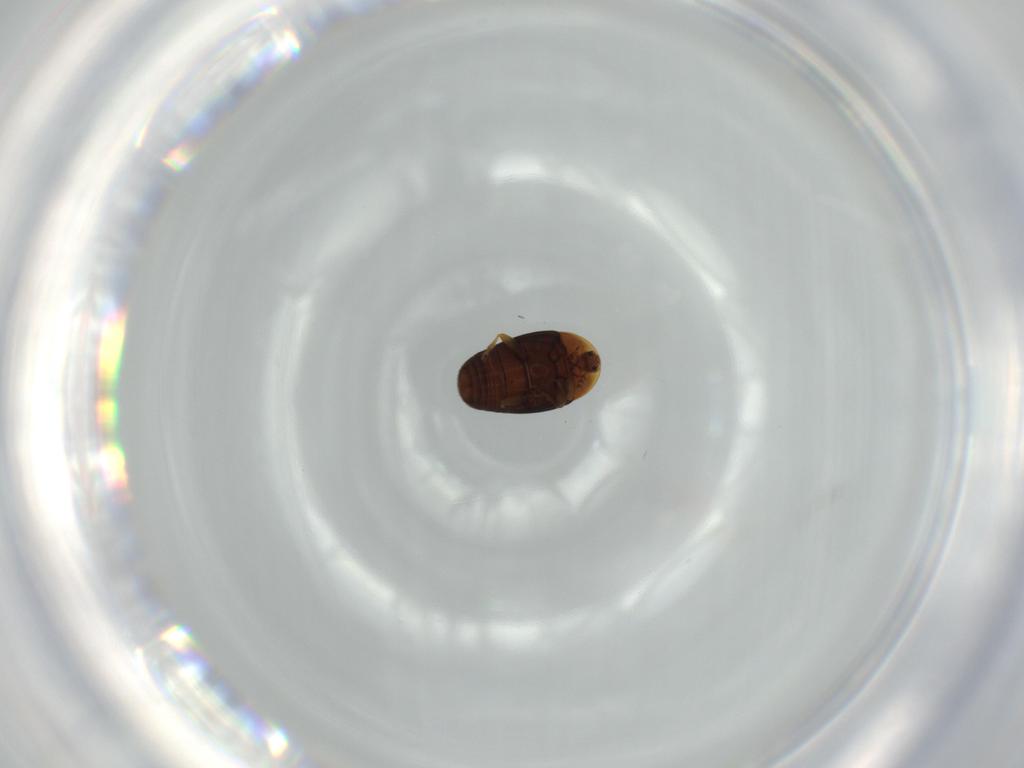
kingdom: Animalia
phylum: Arthropoda
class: Insecta
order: Coleoptera
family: Corylophidae
